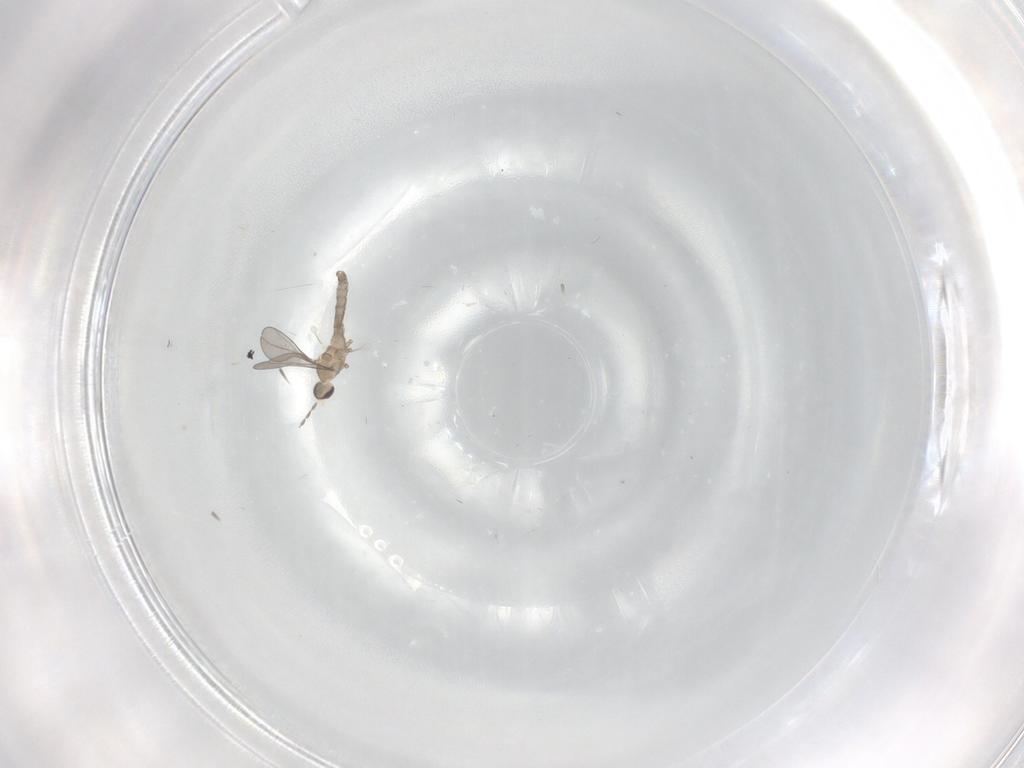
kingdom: Animalia
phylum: Arthropoda
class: Insecta
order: Diptera
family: Cecidomyiidae
